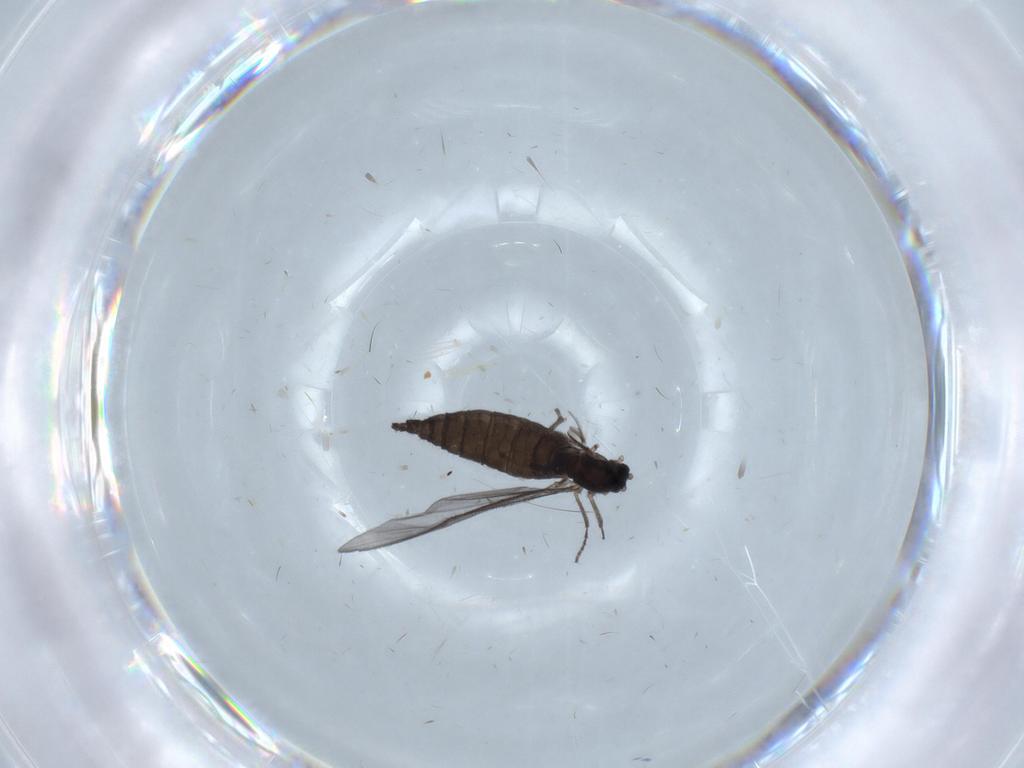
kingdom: Animalia
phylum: Arthropoda
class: Insecta
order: Diptera
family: Sciaridae
